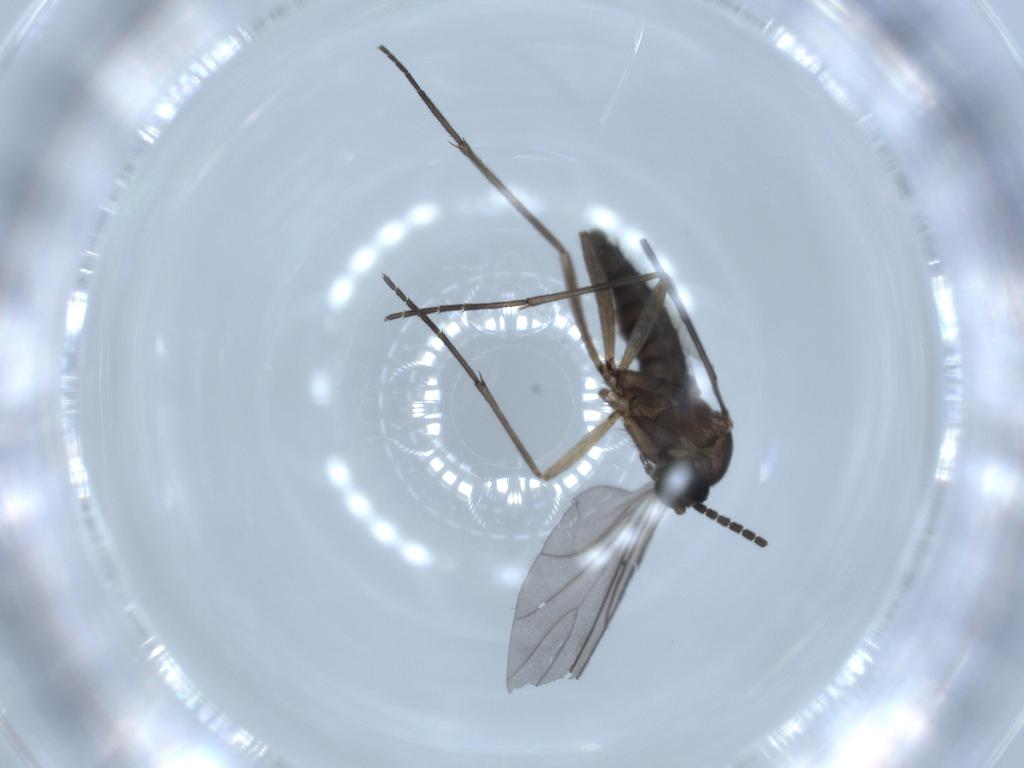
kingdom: Animalia
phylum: Arthropoda
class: Insecta
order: Diptera
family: Sciaridae
